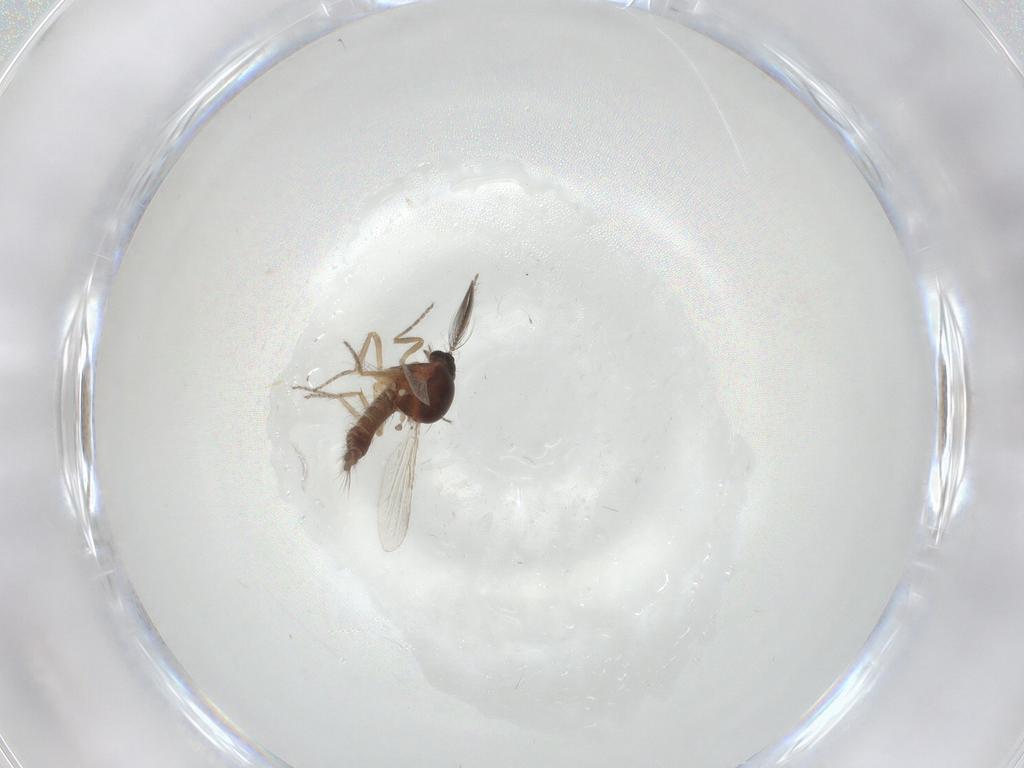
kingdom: Animalia
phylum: Arthropoda
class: Insecta
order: Diptera
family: Ceratopogonidae
